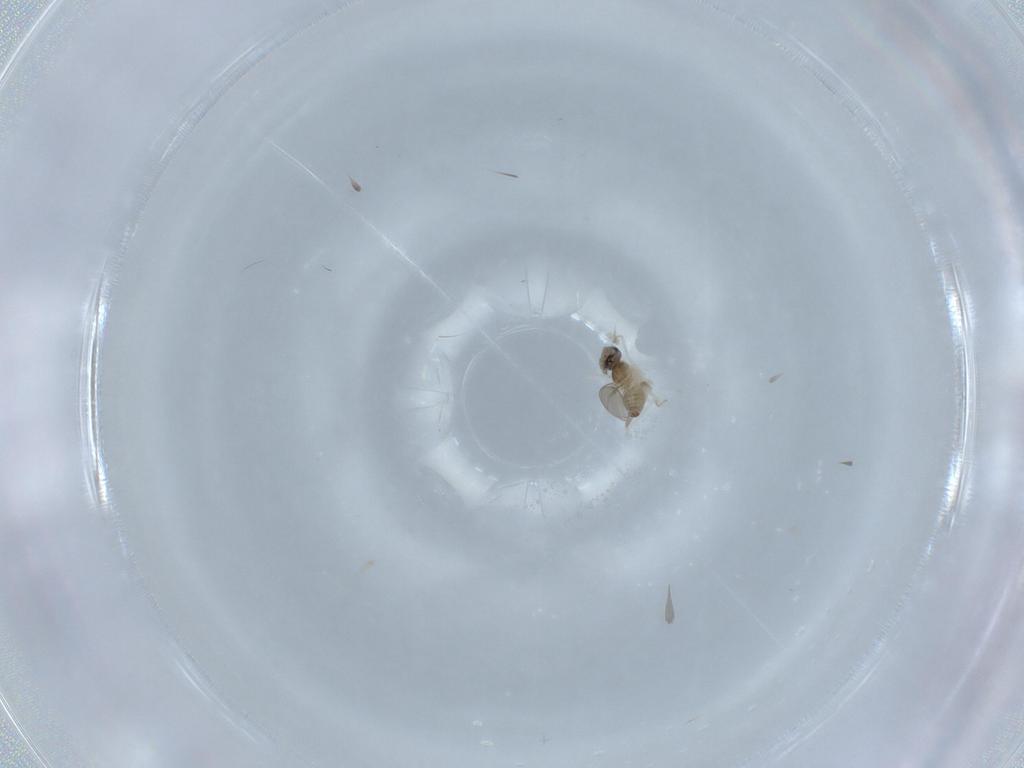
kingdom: Animalia
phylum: Arthropoda
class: Insecta
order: Diptera
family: Cecidomyiidae
